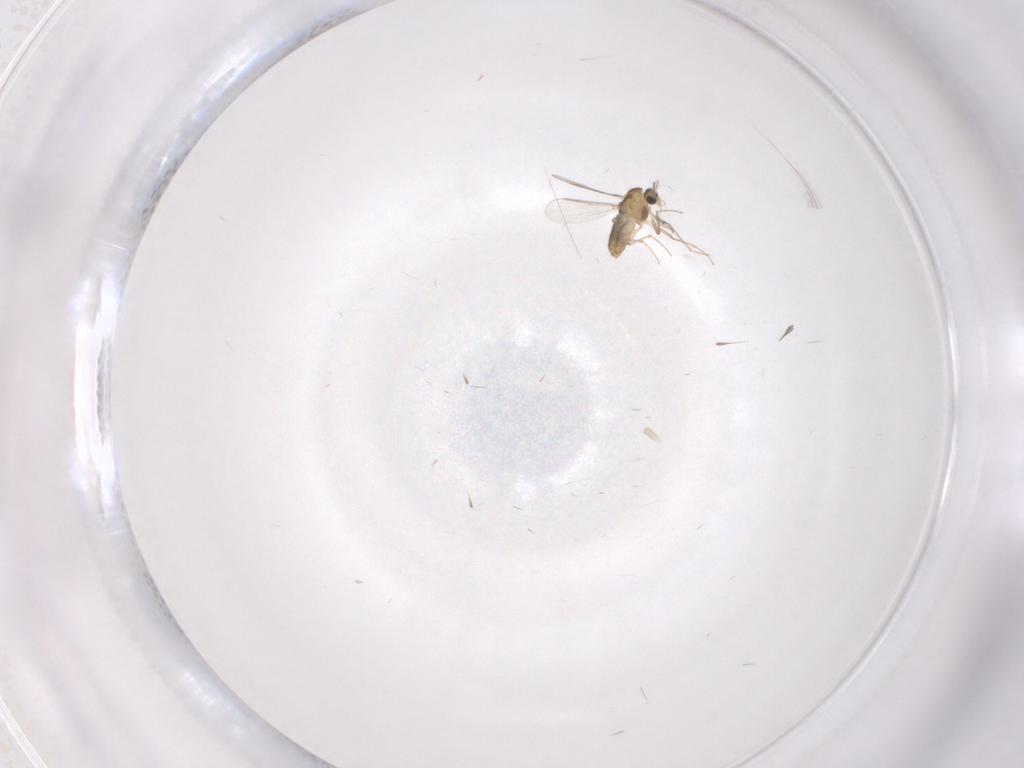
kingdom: Animalia
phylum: Arthropoda
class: Insecta
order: Diptera
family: Chironomidae
